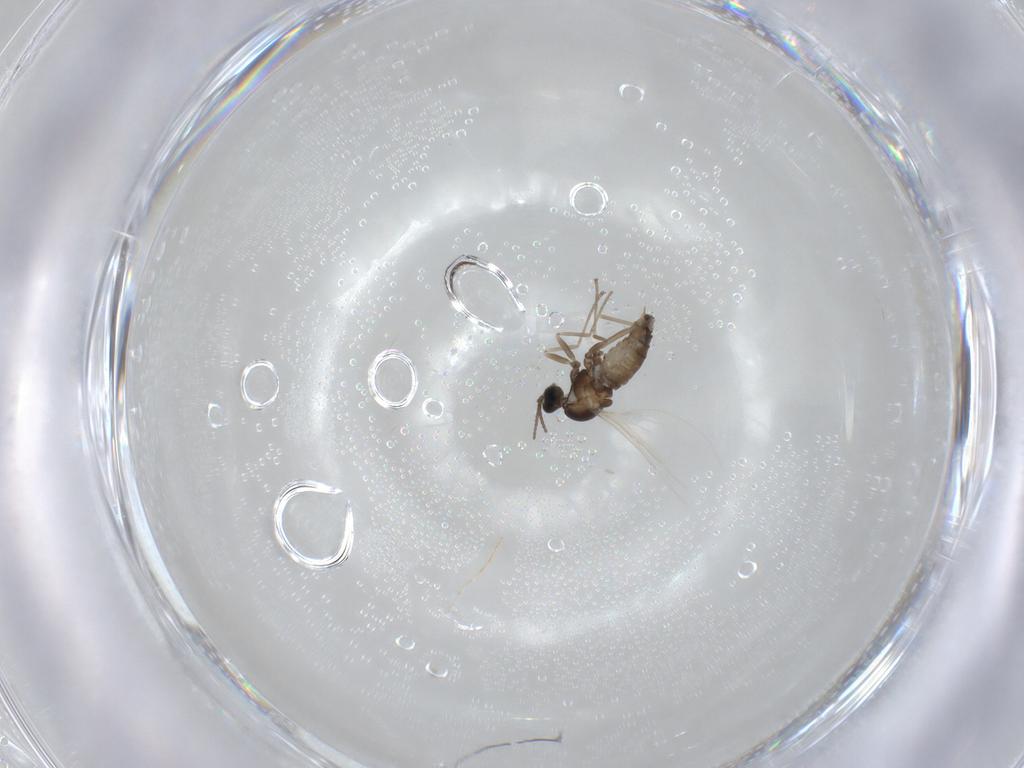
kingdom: Animalia
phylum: Arthropoda
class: Insecta
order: Diptera
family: Cecidomyiidae
